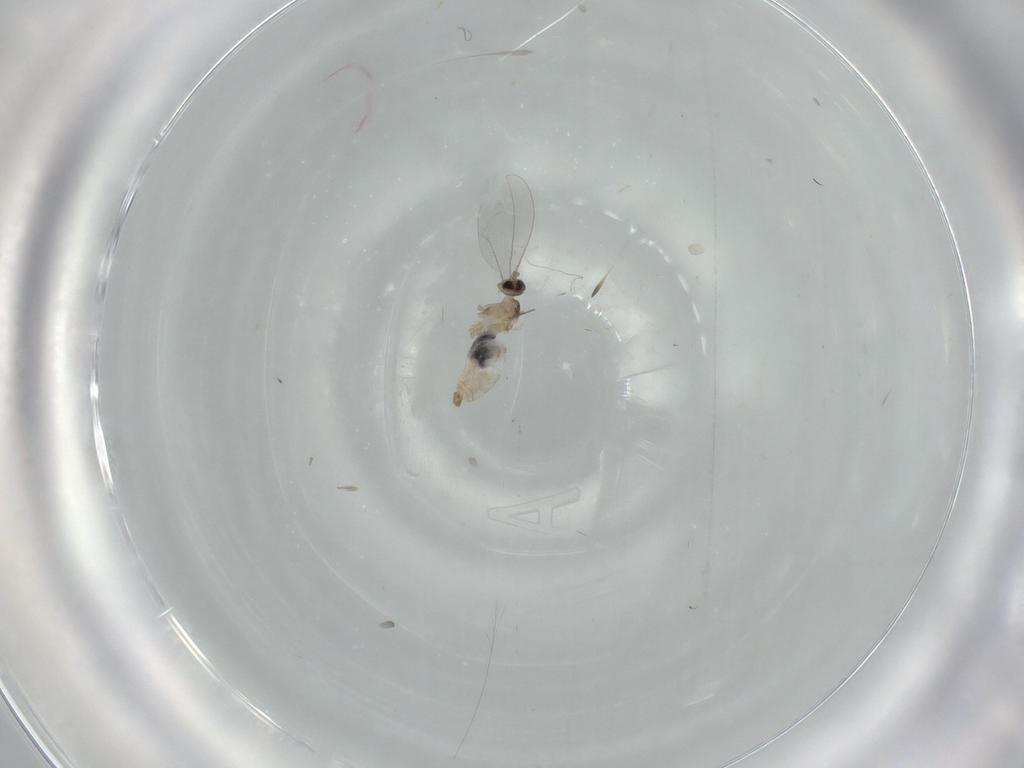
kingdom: Animalia
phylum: Arthropoda
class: Insecta
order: Diptera
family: Cecidomyiidae
